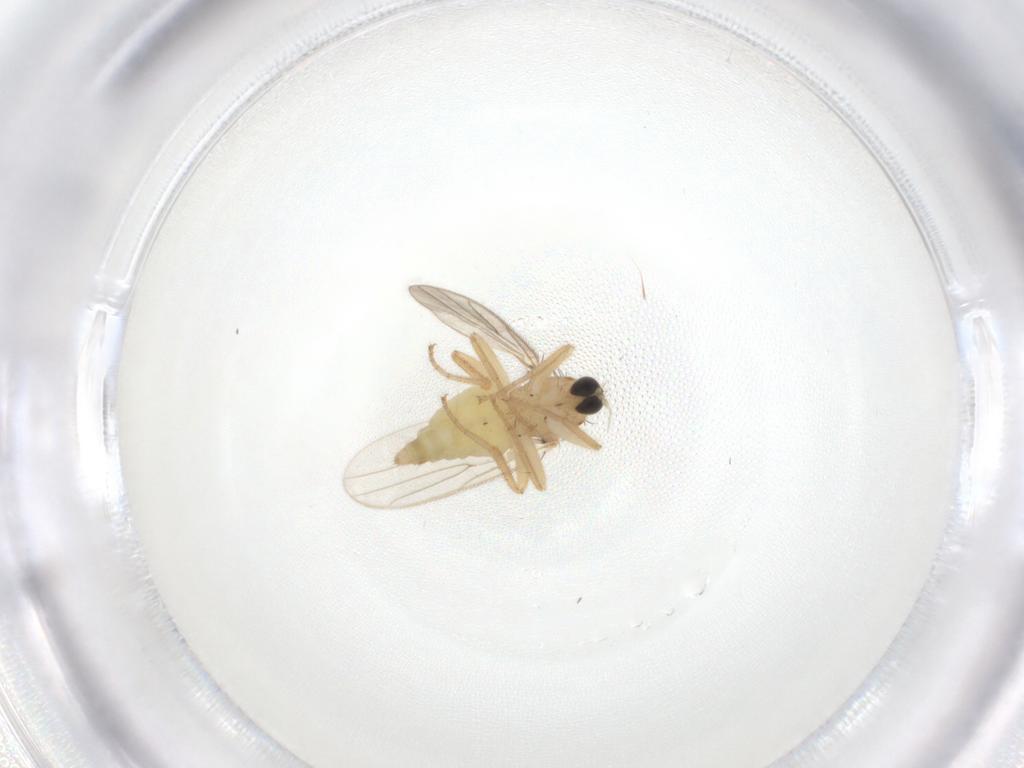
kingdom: Animalia
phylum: Arthropoda
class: Insecta
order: Diptera
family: Hybotidae
